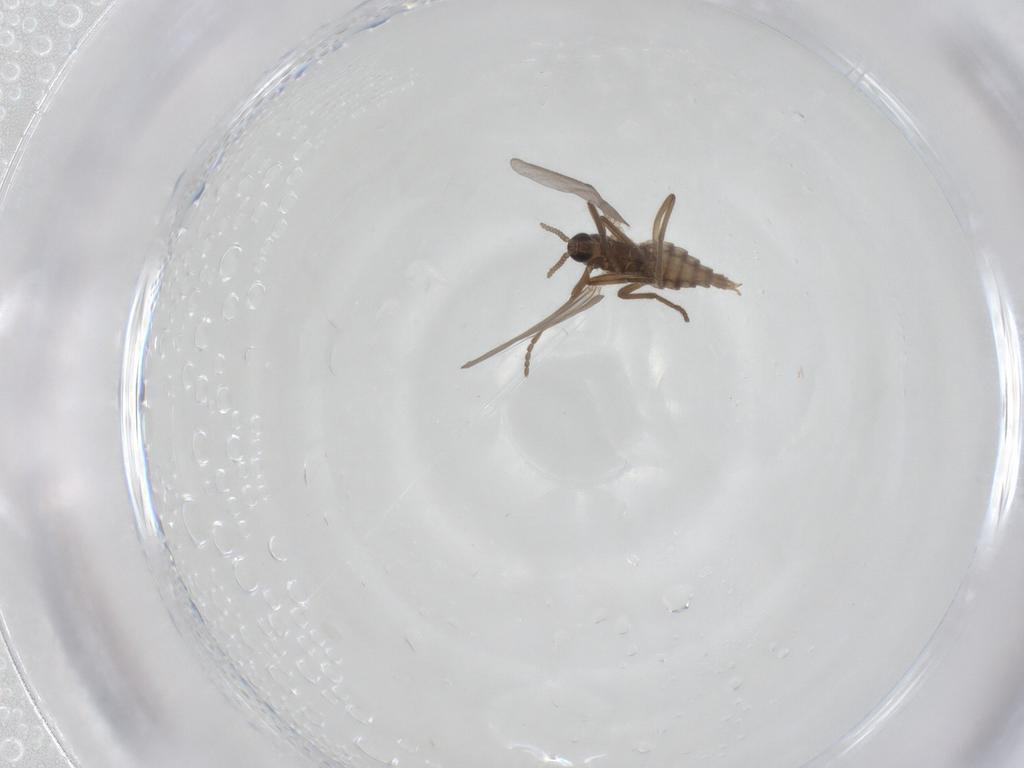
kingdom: Animalia
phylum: Arthropoda
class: Insecta
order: Diptera
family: Cecidomyiidae
